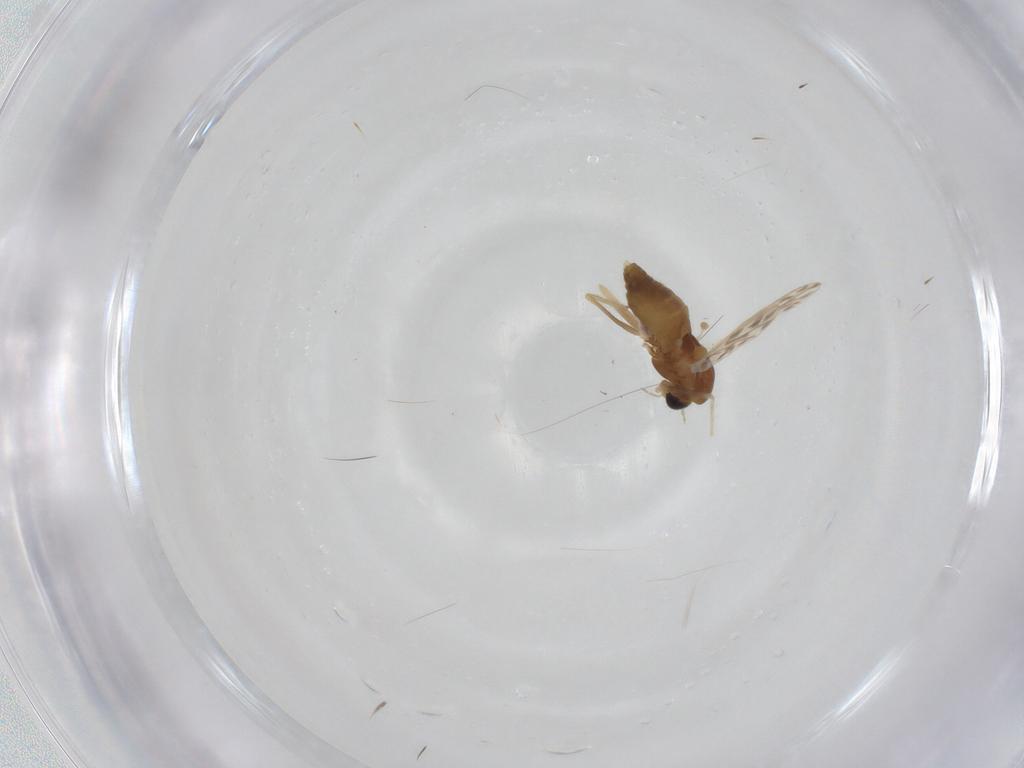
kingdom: Animalia
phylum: Arthropoda
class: Insecta
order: Diptera
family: Chironomidae
